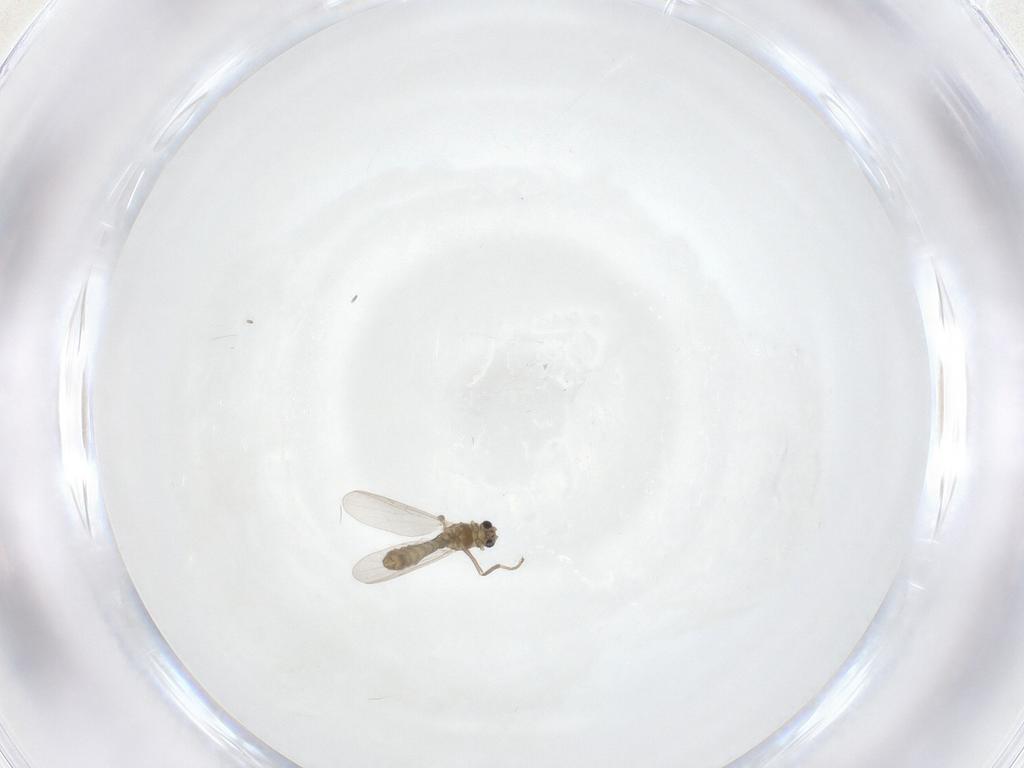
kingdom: Animalia
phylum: Arthropoda
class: Insecta
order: Diptera
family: Chironomidae
